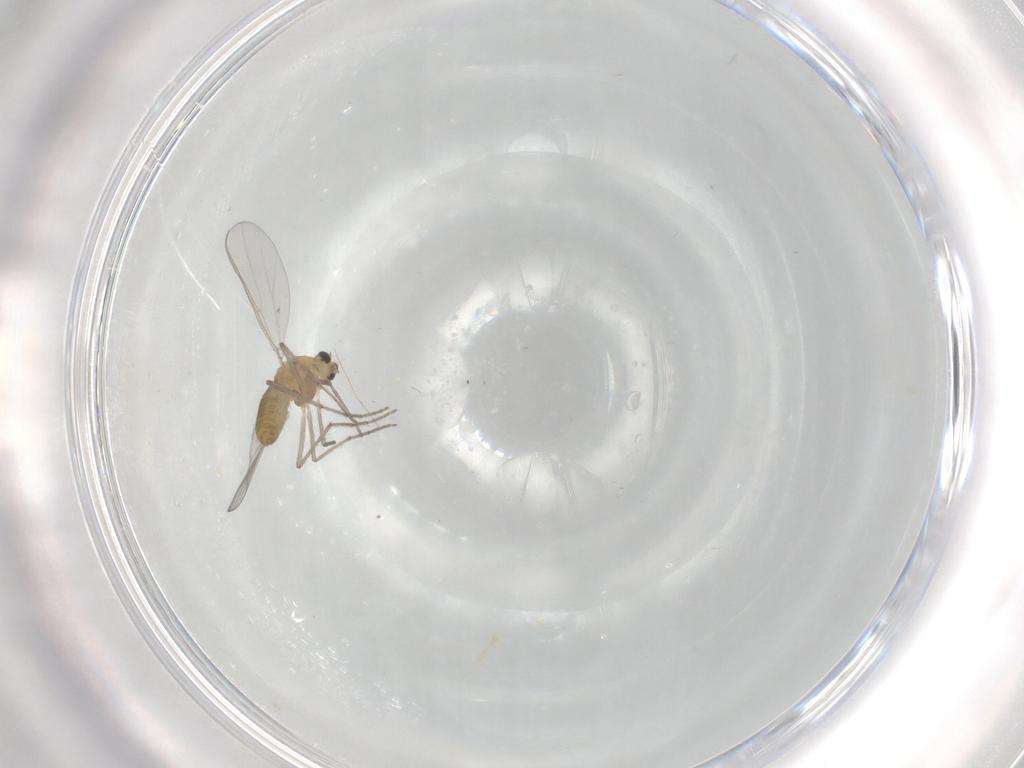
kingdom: Animalia
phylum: Arthropoda
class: Insecta
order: Diptera
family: Chironomidae
